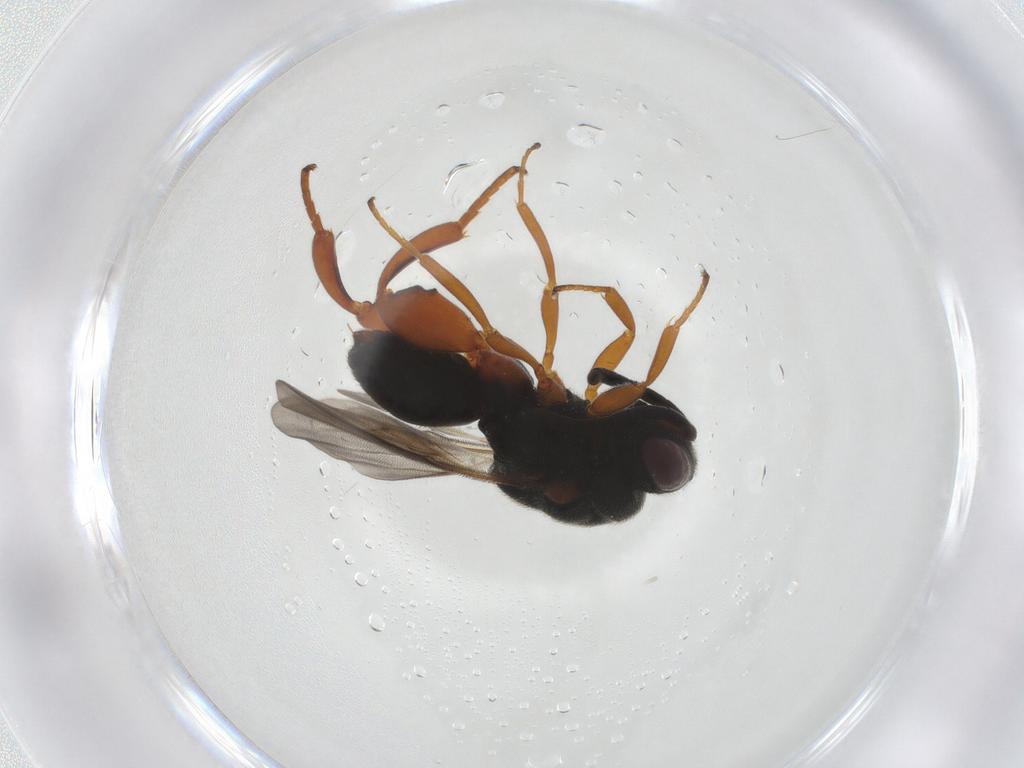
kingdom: Animalia
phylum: Arthropoda
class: Insecta
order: Hymenoptera
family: Chalcididae
